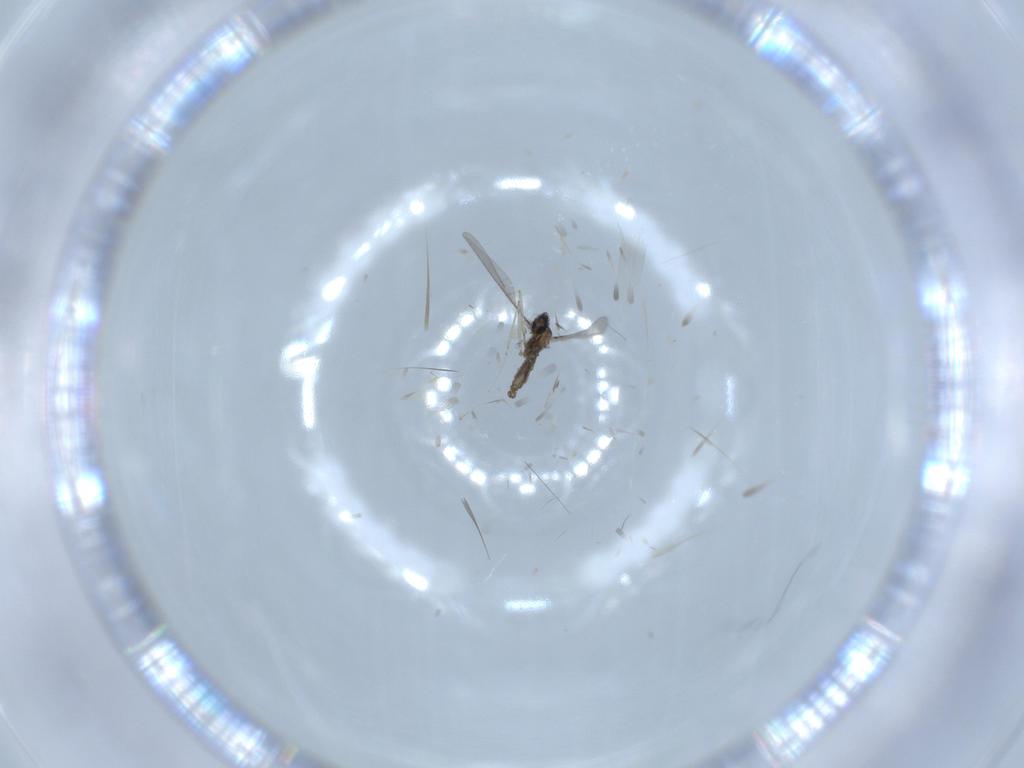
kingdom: Animalia
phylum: Arthropoda
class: Insecta
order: Diptera
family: Cecidomyiidae
